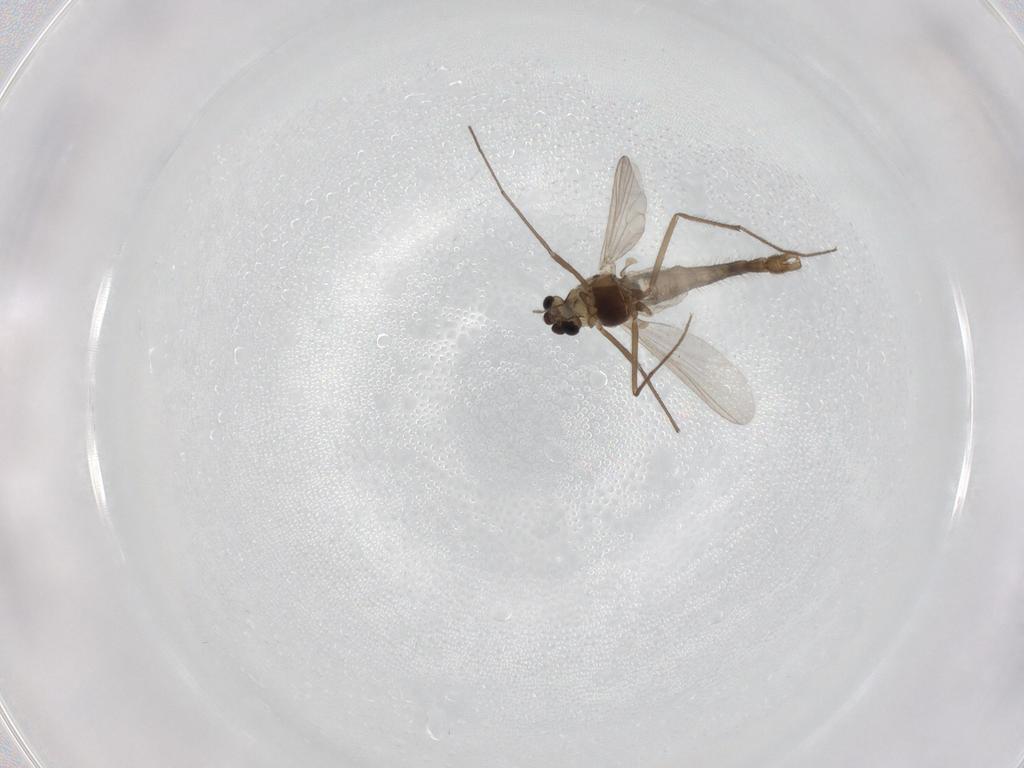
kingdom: Animalia
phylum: Arthropoda
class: Insecta
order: Diptera
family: Chironomidae
